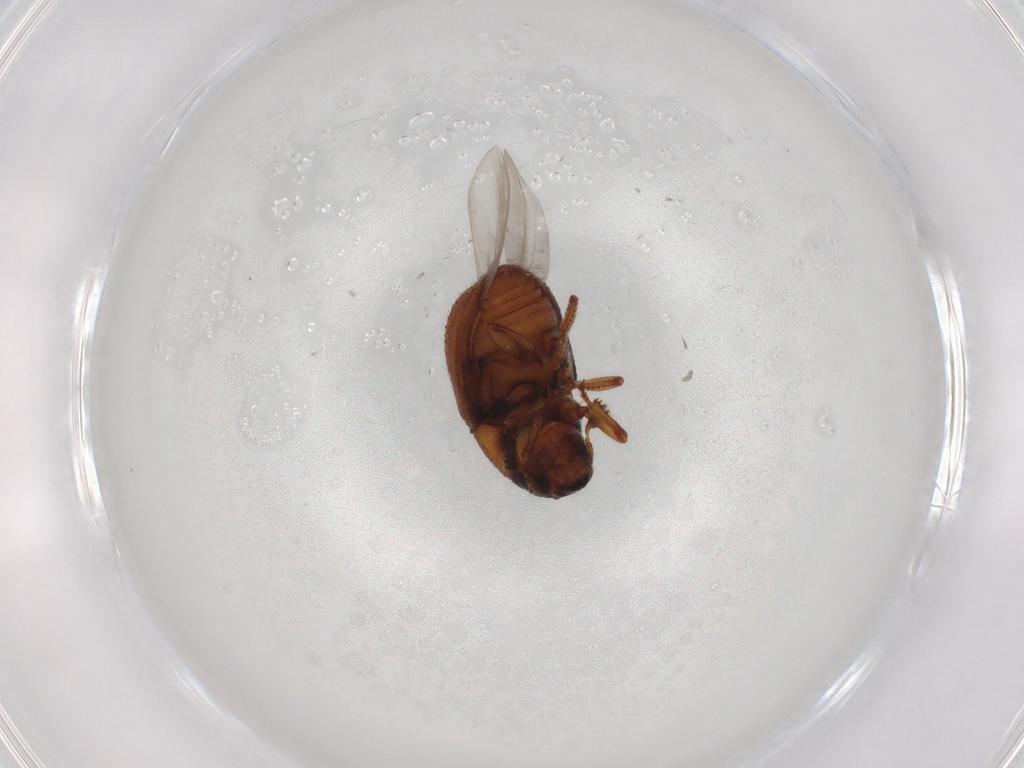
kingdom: Animalia
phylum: Arthropoda
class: Insecta
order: Coleoptera
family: Curculionidae
